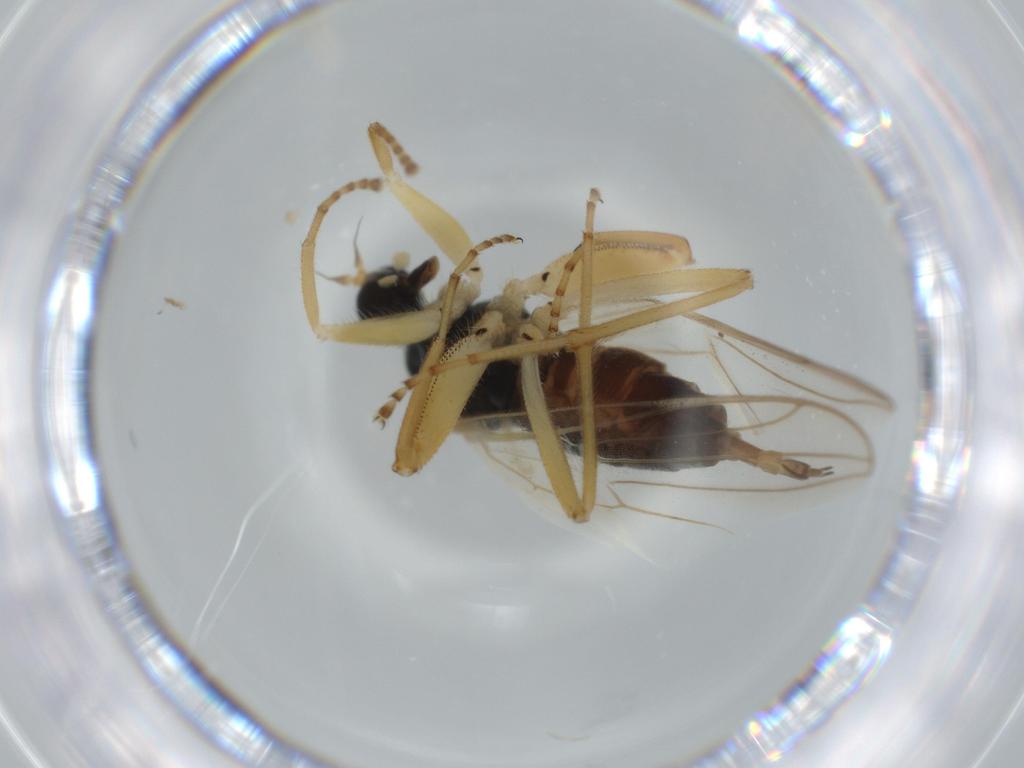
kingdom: Animalia
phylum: Arthropoda
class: Insecta
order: Diptera
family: Hybotidae
